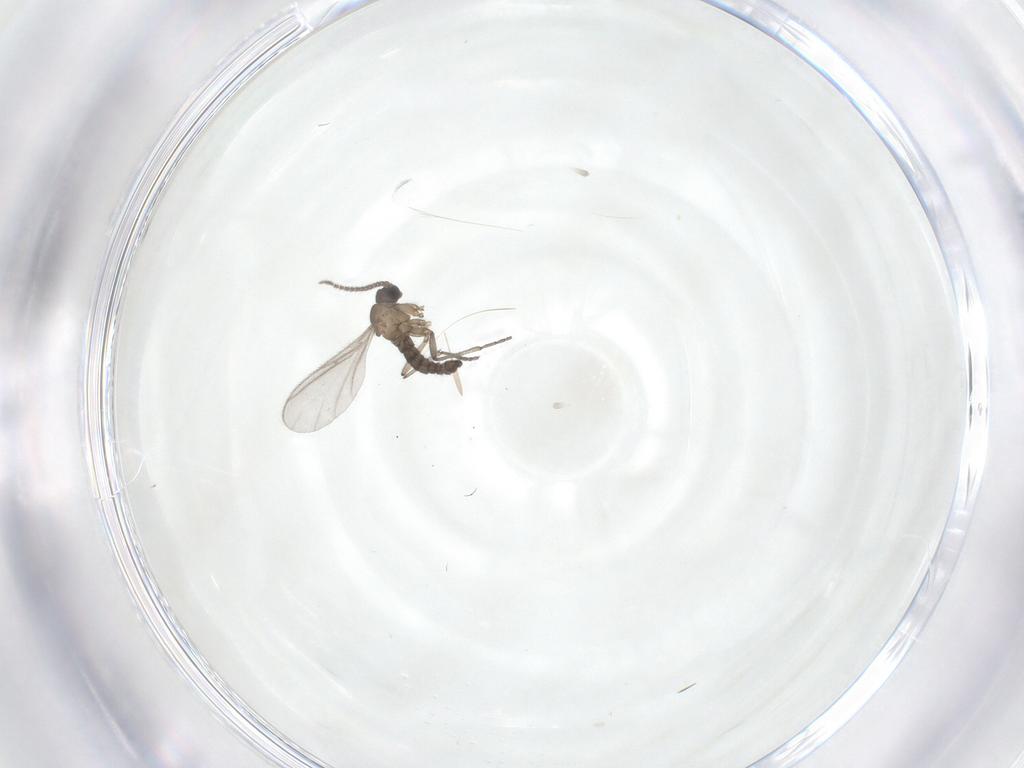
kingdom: Animalia
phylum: Arthropoda
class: Insecta
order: Diptera
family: Sciaridae
